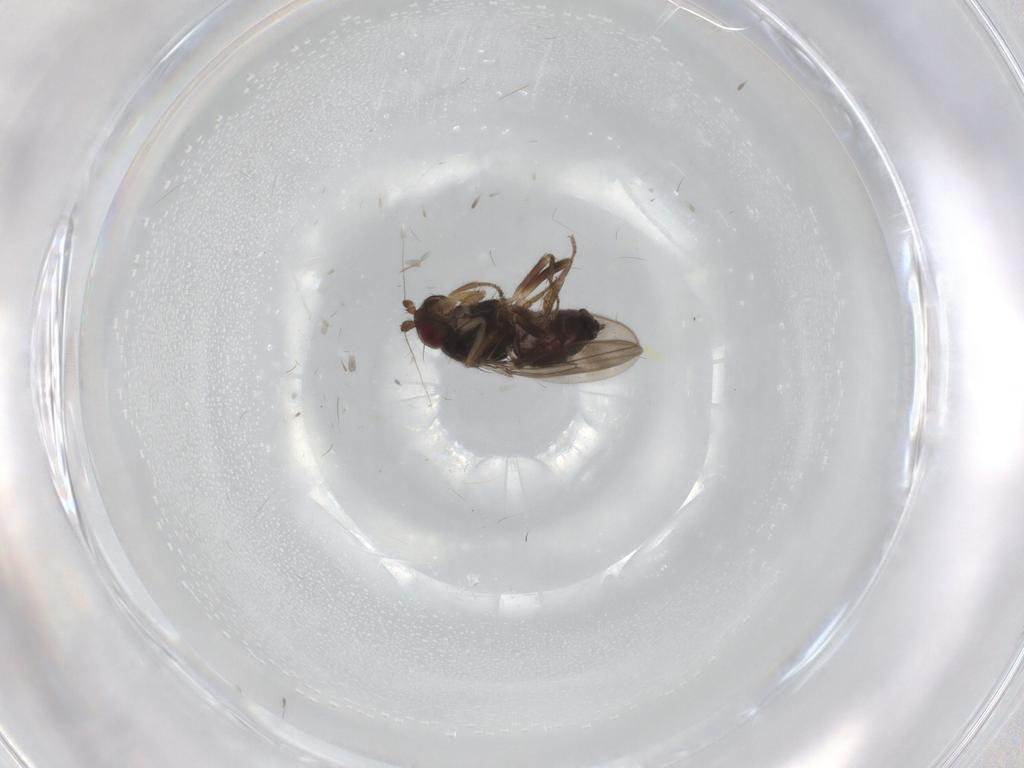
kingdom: Animalia
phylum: Arthropoda
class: Insecta
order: Diptera
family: Sphaeroceridae
